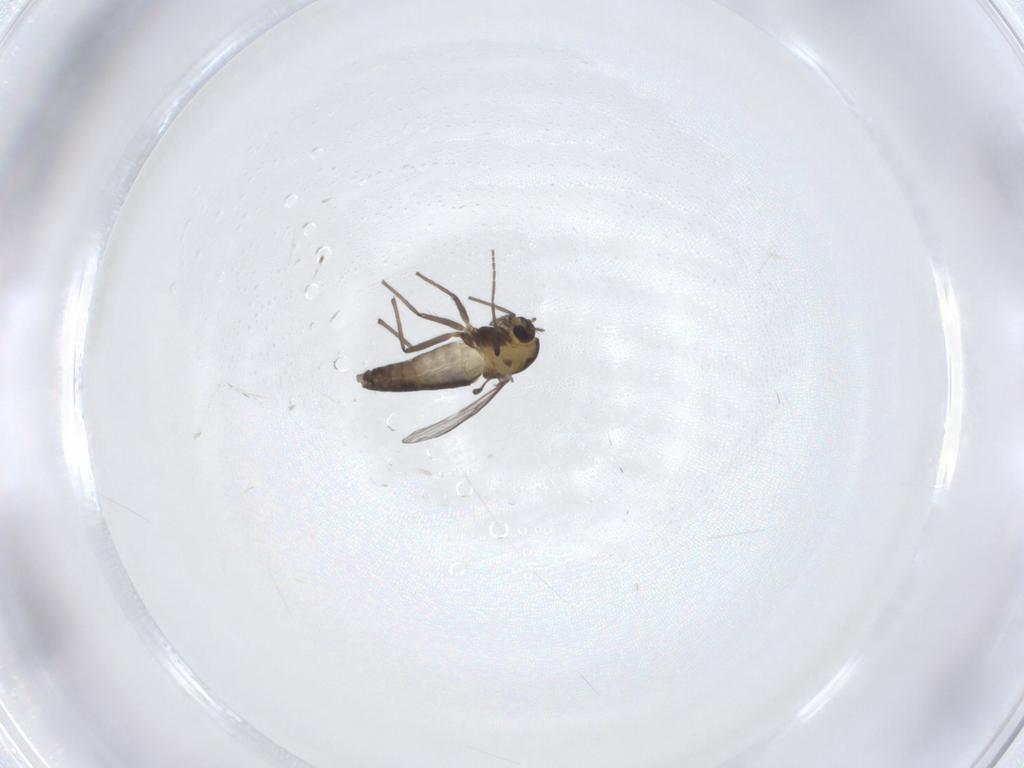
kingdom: Animalia
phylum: Arthropoda
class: Insecta
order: Diptera
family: Chironomidae
